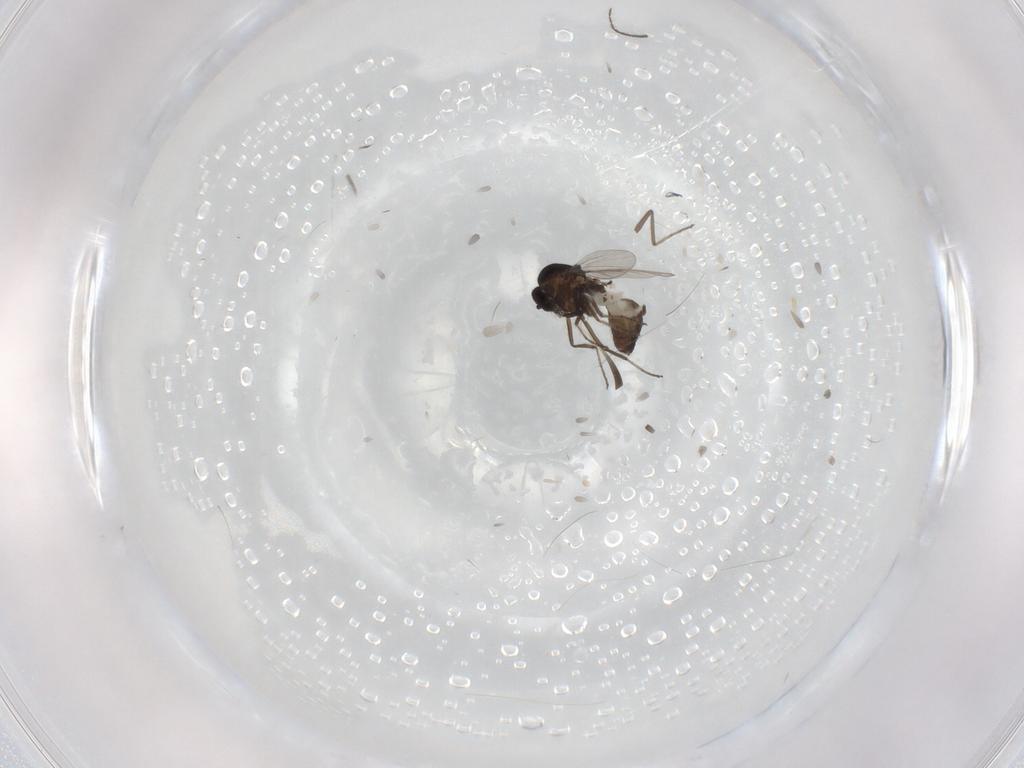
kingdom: Animalia
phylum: Arthropoda
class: Insecta
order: Diptera
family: Ceratopogonidae
